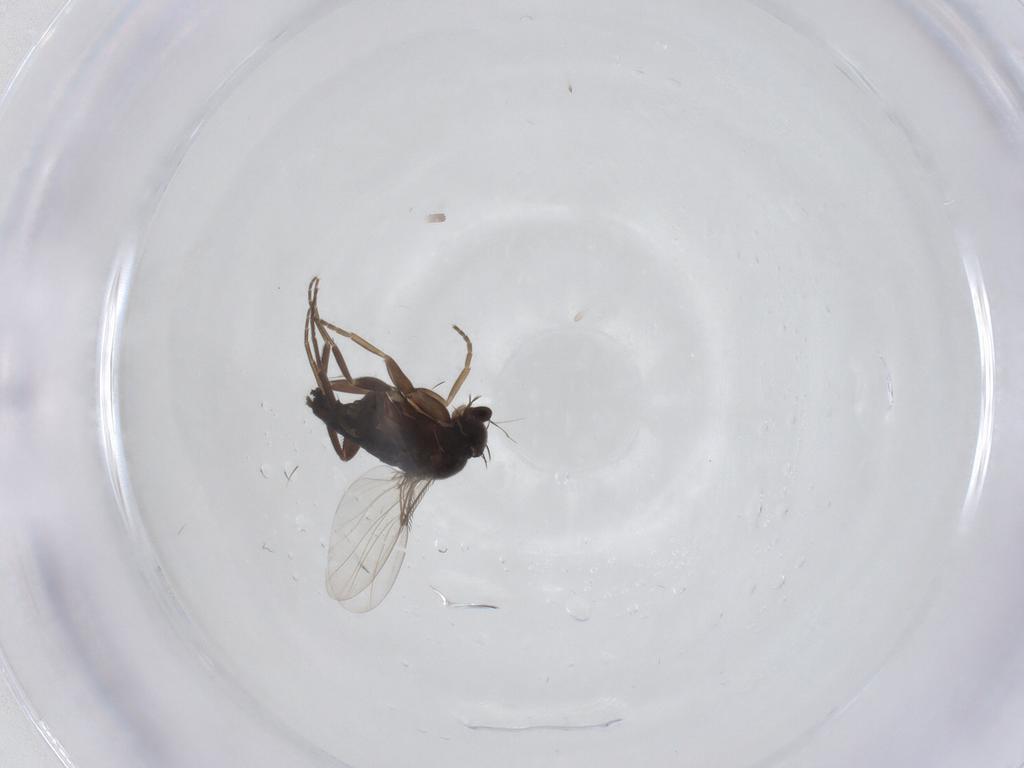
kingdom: Animalia
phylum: Arthropoda
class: Insecta
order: Diptera
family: Phoridae
